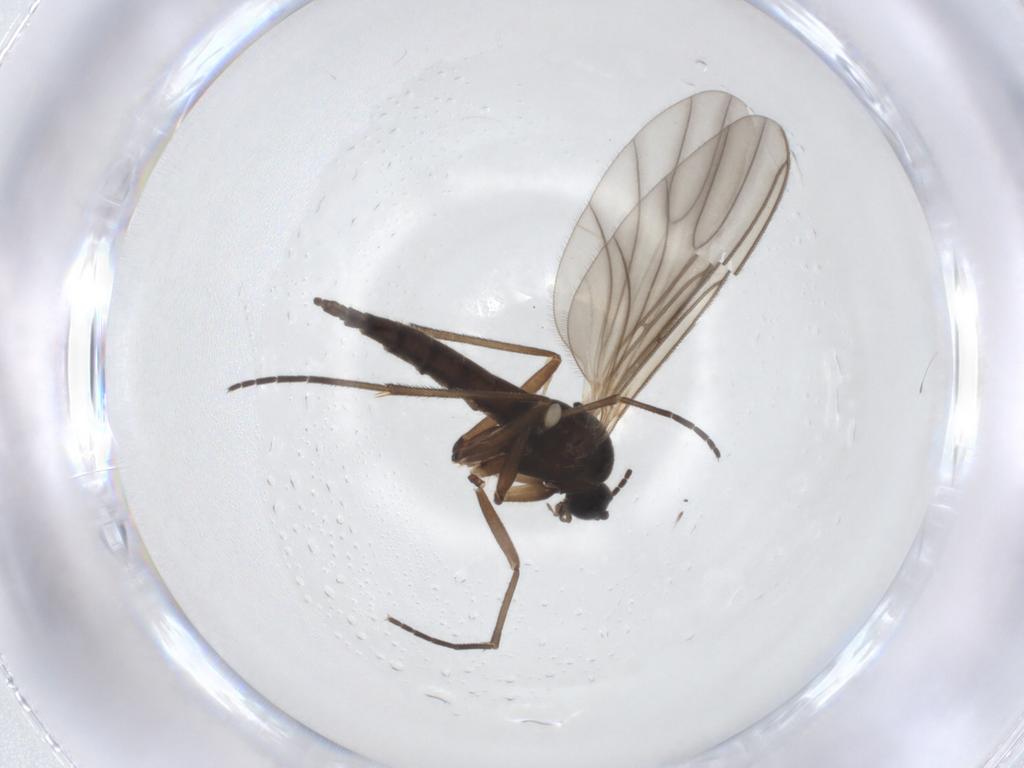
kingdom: Animalia
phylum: Arthropoda
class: Insecta
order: Diptera
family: Sciaridae
